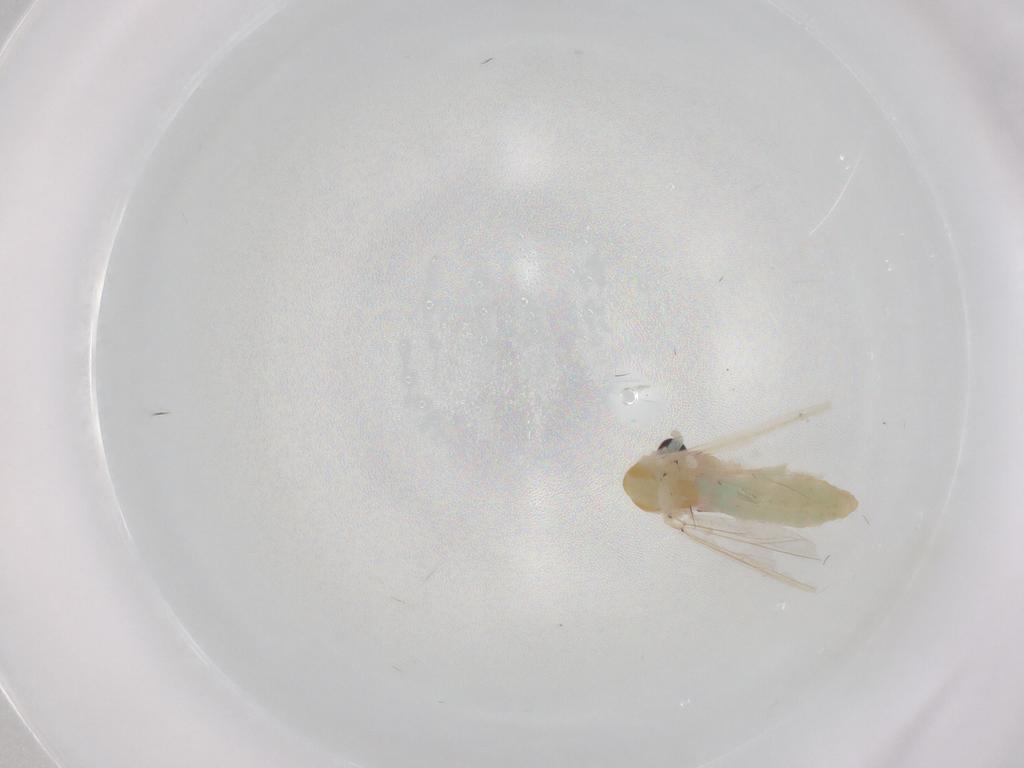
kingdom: Animalia
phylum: Arthropoda
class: Insecta
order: Diptera
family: Chironomidae
